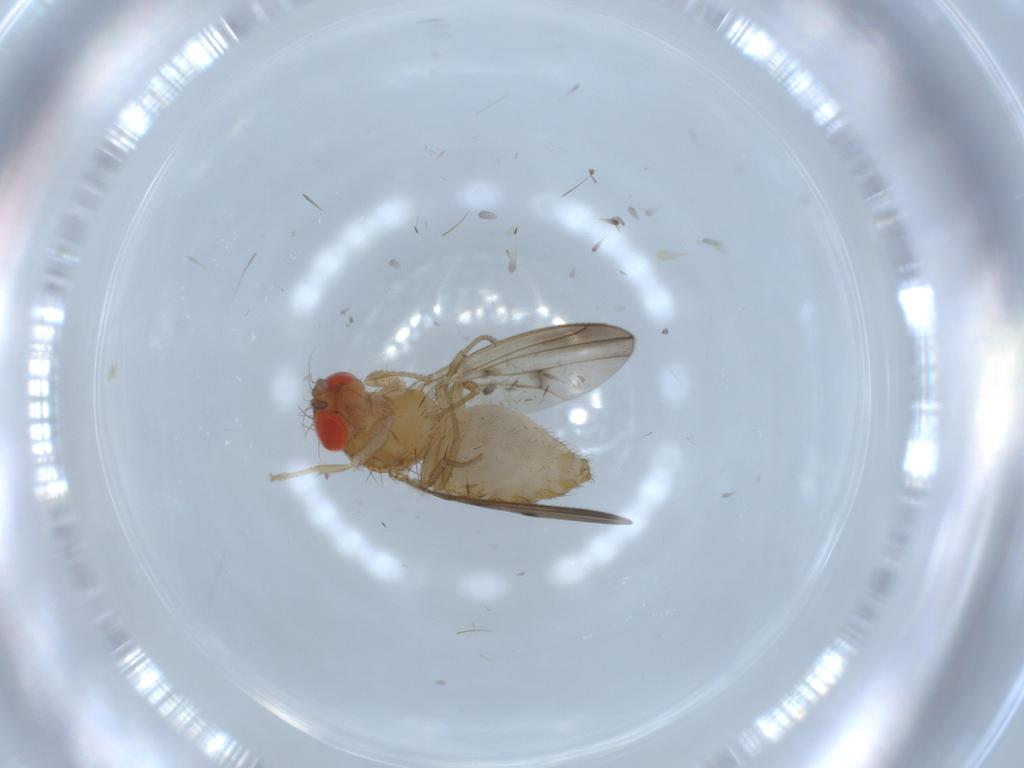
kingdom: Animalia
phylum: Arthropoda
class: Insecta
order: Diptera
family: Drosophilidae
